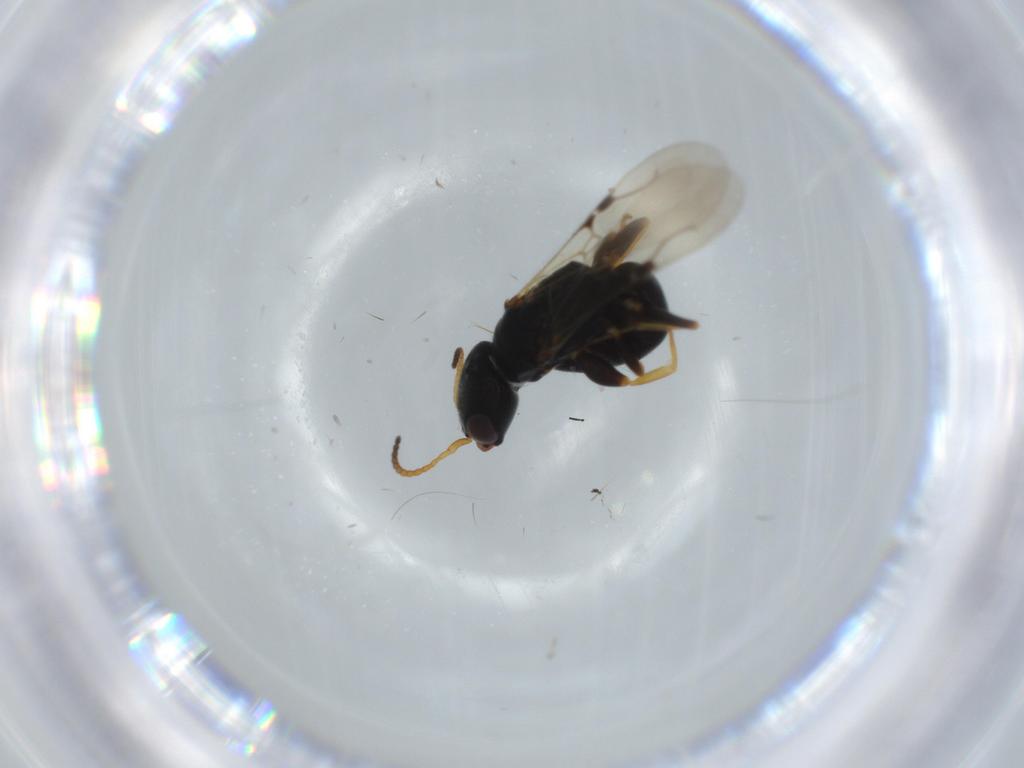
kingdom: Animalia
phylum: Arthropoda
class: Insecta
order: Hymenoptera
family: Bethylidae
